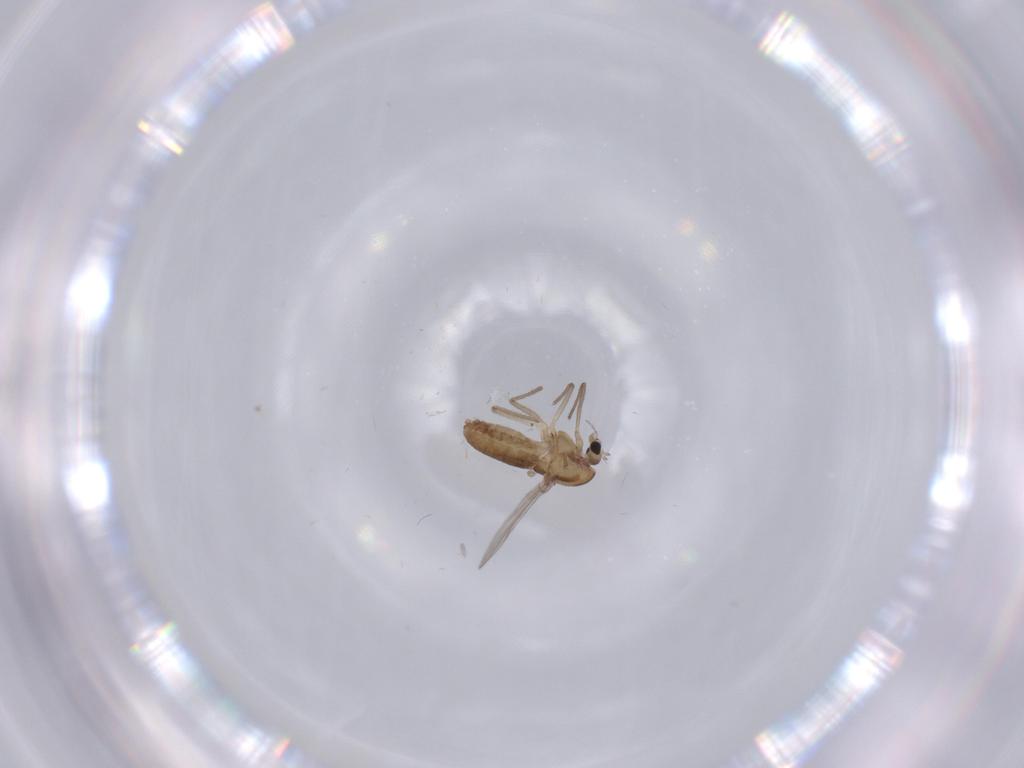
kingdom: Animalia
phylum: Arthropoda
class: Insecta
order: Diptera
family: Chironomidae
